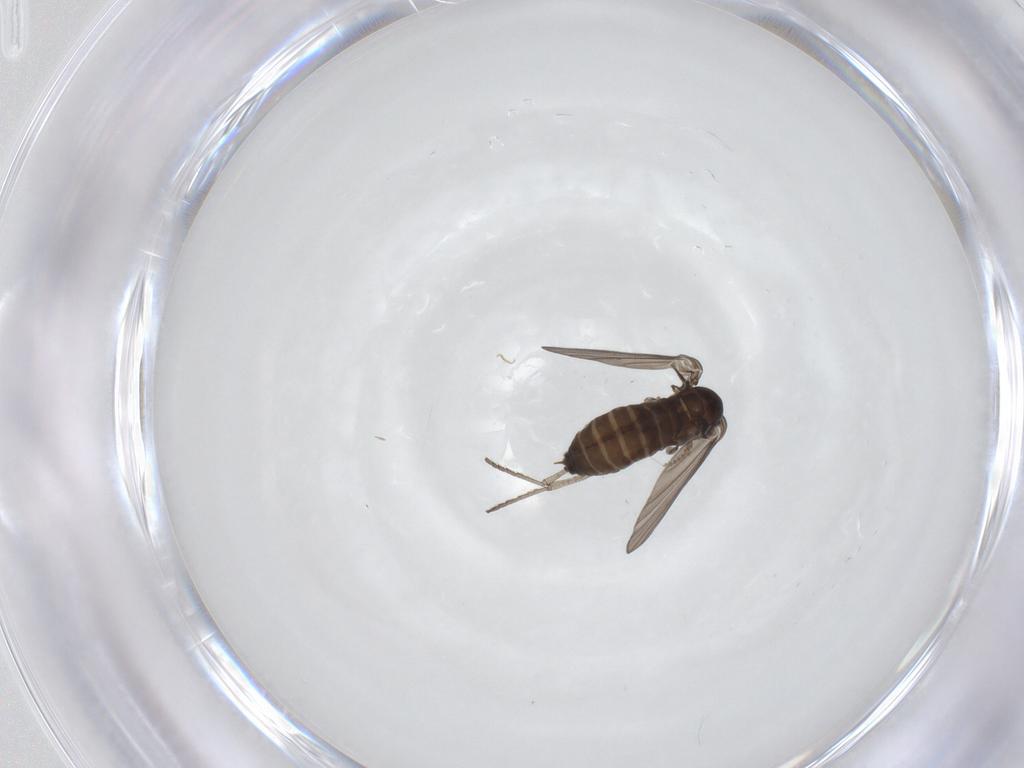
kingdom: Animalia
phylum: Arthropoda
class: Insecta
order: Diptera
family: Psychodidae
